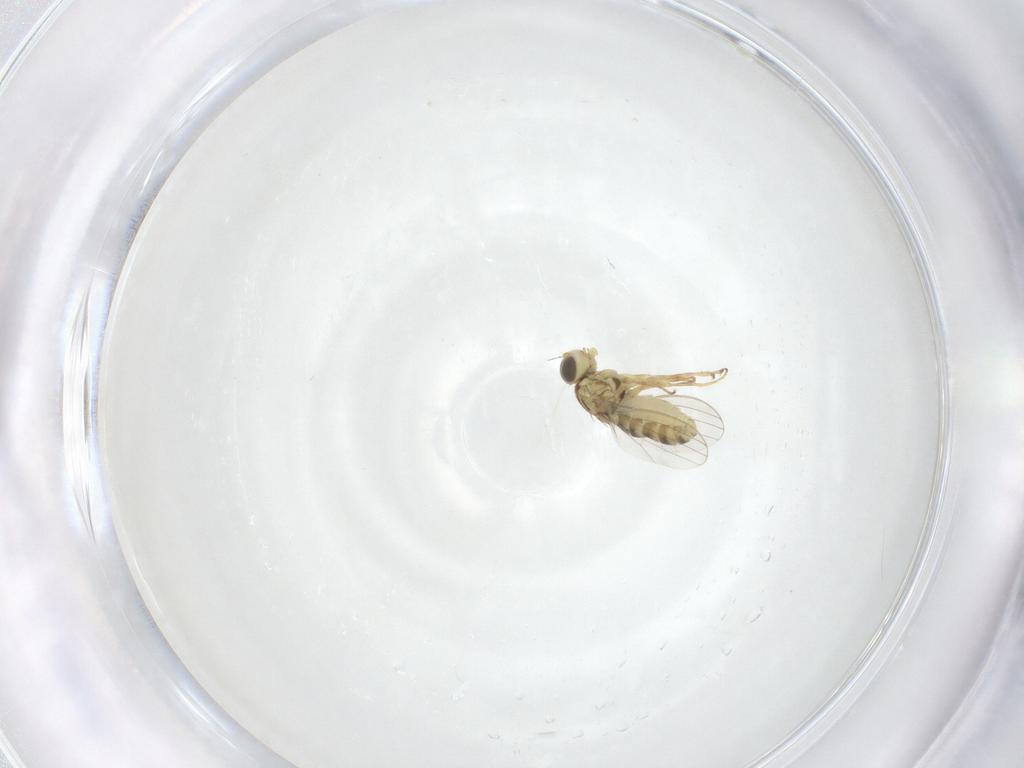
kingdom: Animalia
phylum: Arthropoda
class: Insecta
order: Diptera
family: Chyromyidae
